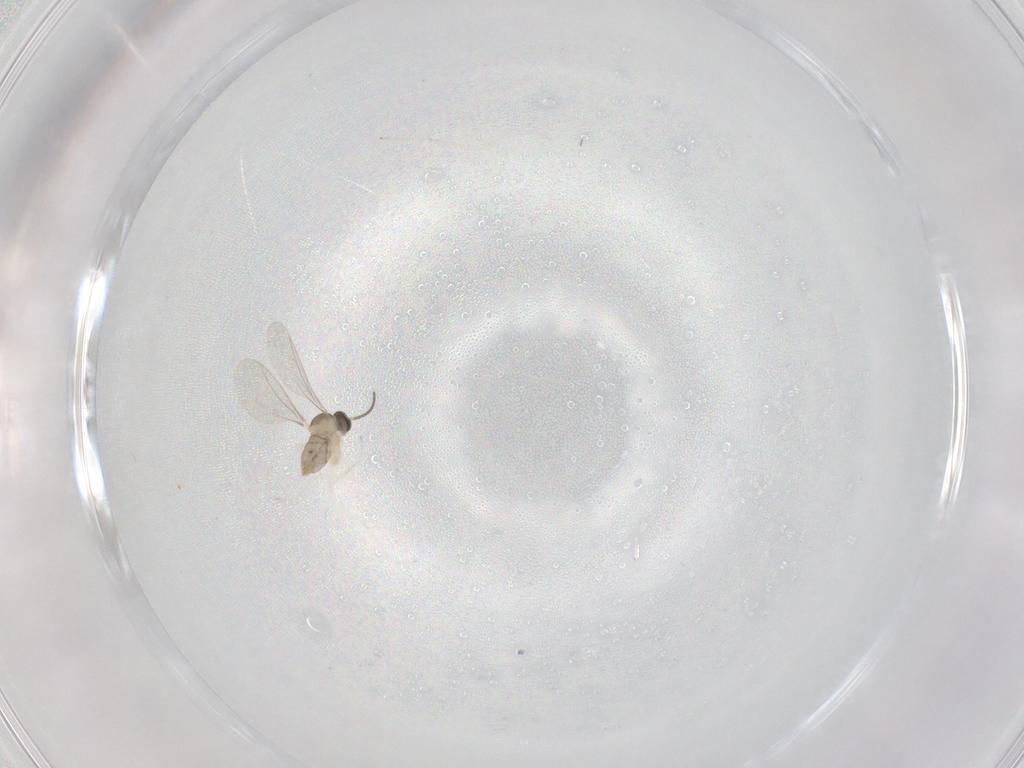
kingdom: Animalia
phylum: Arthropoda
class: Insecta
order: Diptera
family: Cecidomyiidae
